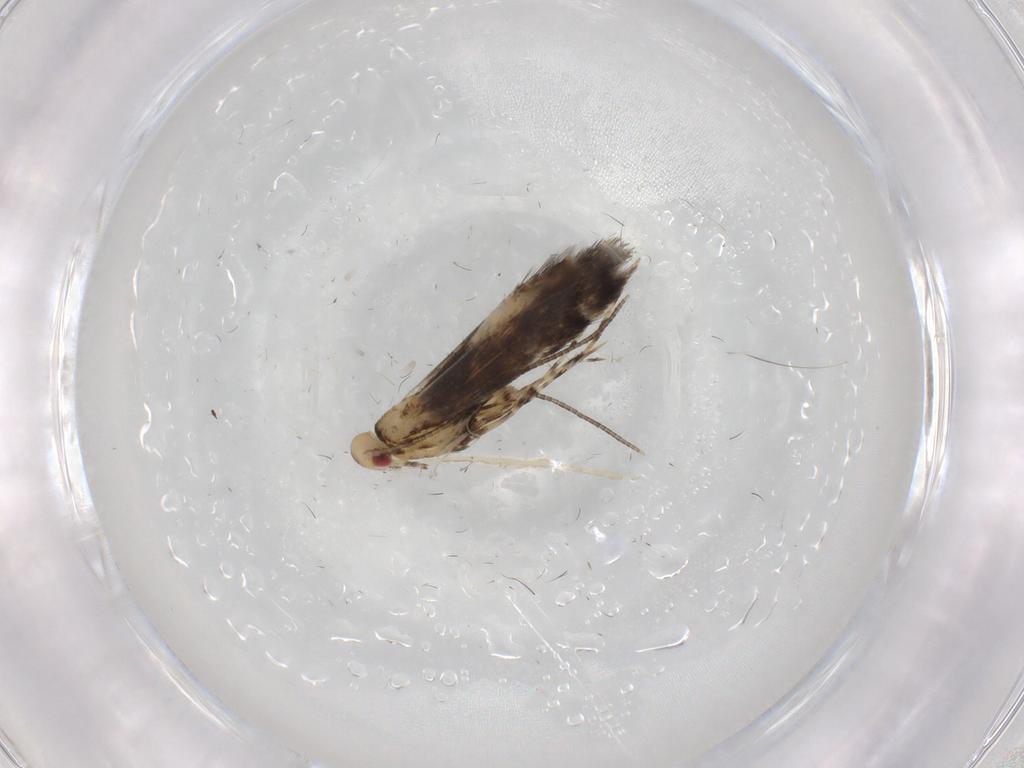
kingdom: Animalia
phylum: Arthropoda
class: Insecta
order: Lepidoptera
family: Gracillariidae
